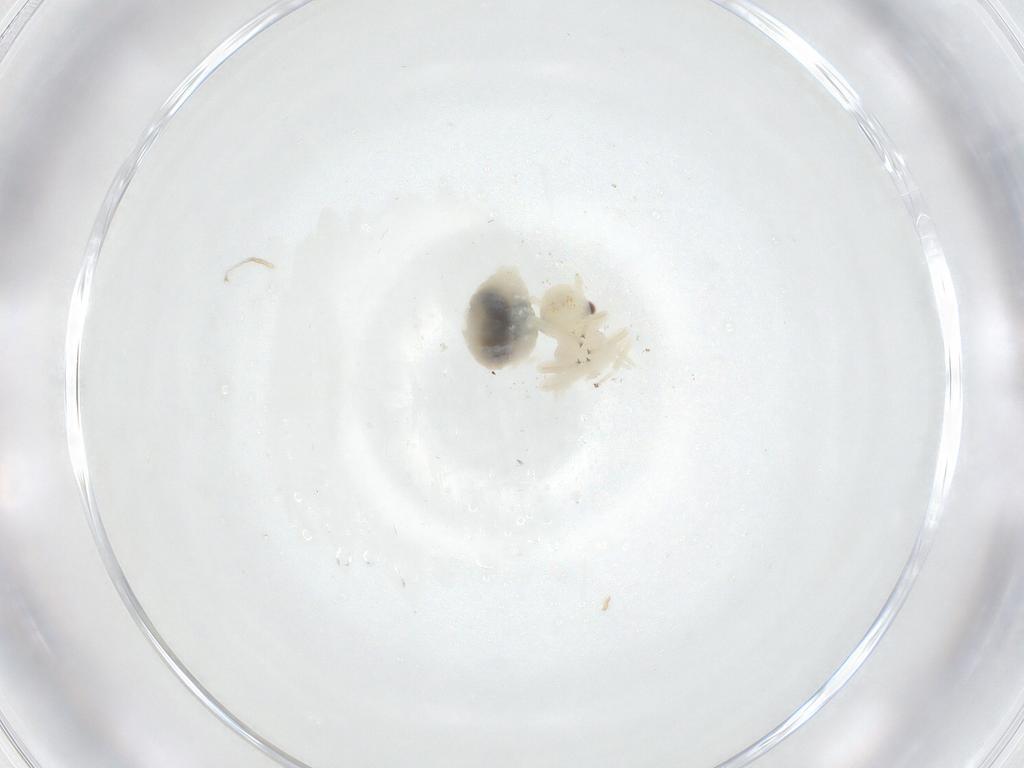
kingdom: Animalia
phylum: Arthropoda
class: Insecta
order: Psocodea
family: Caeciliusidae
